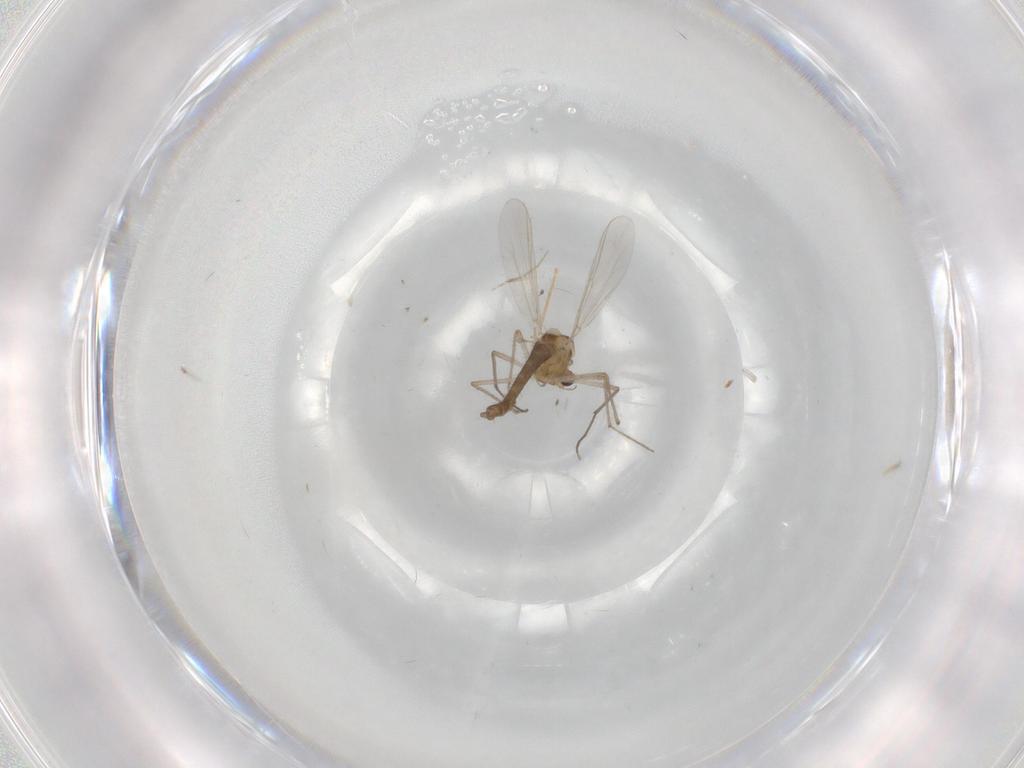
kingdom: Animalia
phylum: Arthropoda
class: Insecta
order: Diptera
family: Chironomidae
